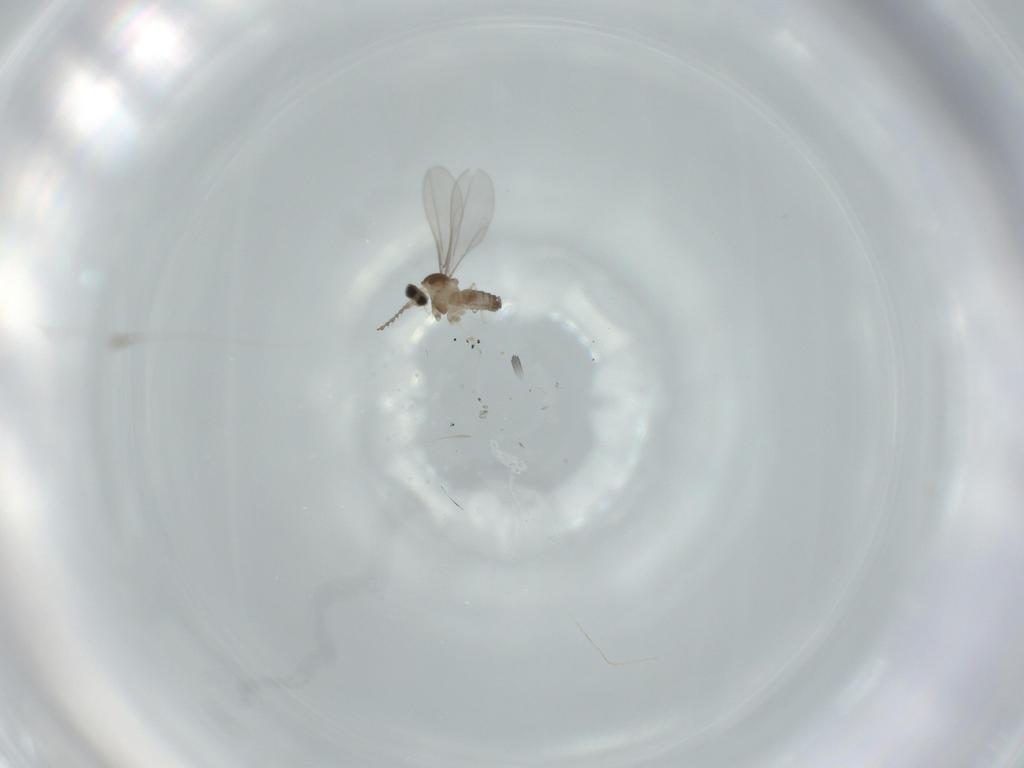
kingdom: Animalia
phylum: Arthropoda
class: Insecta
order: Diptera
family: Cecidomyiidae
